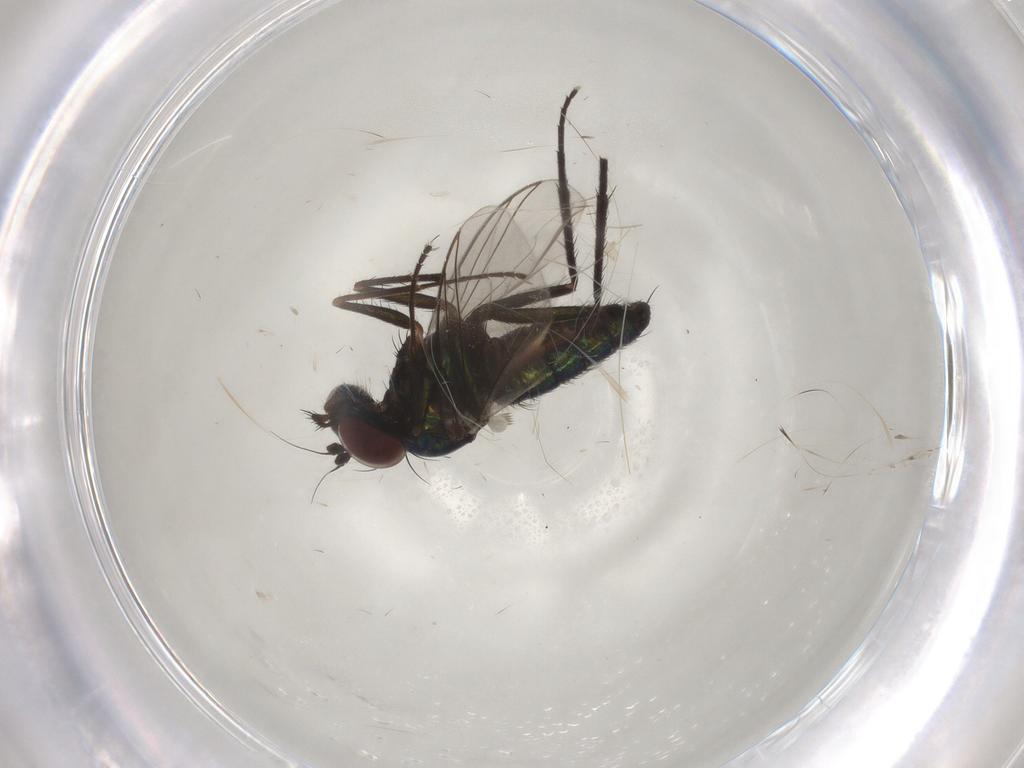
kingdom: Animalia
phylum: Arthropoda
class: Insecta
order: Diptera
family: Dolichopodidae
